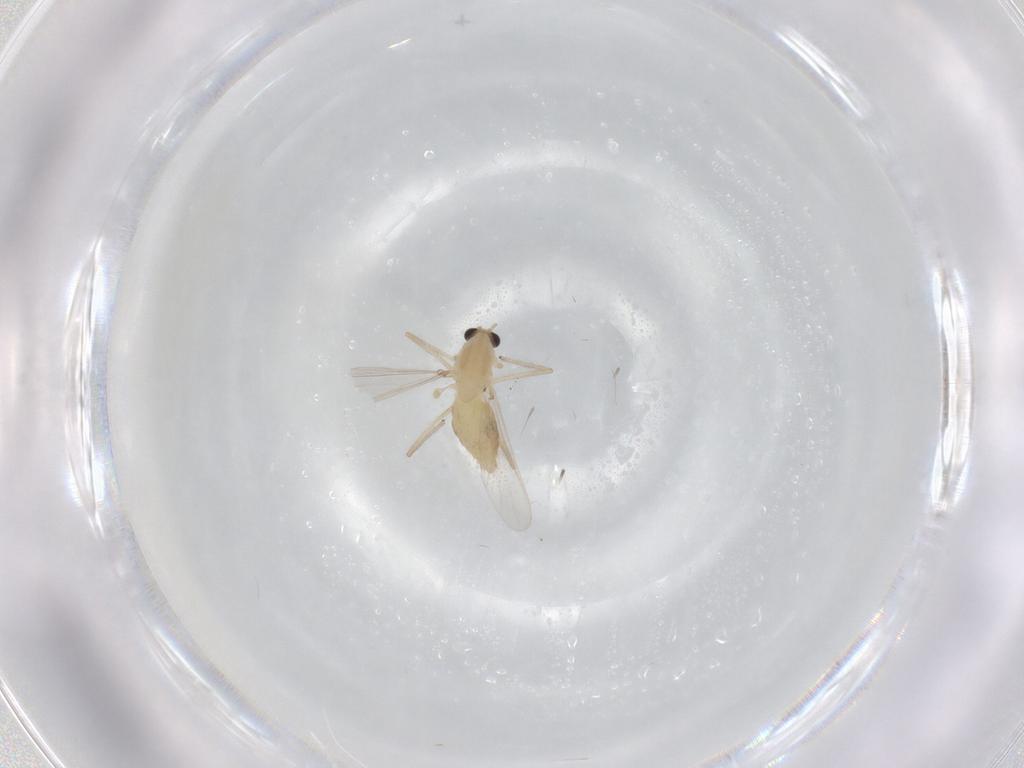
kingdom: Animalia
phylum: Arthropoda
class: Insecta
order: Diptera
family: Chironomidae
